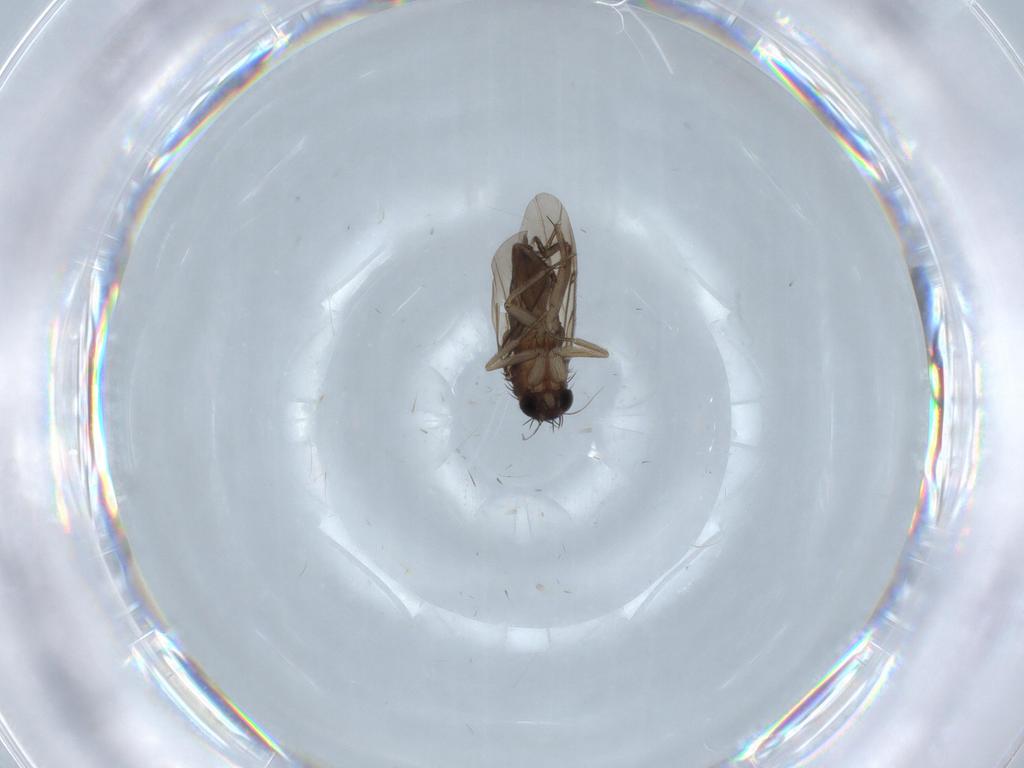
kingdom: Animalia
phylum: Arthropoda
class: Insecta
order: Diptera
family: Phoridae
